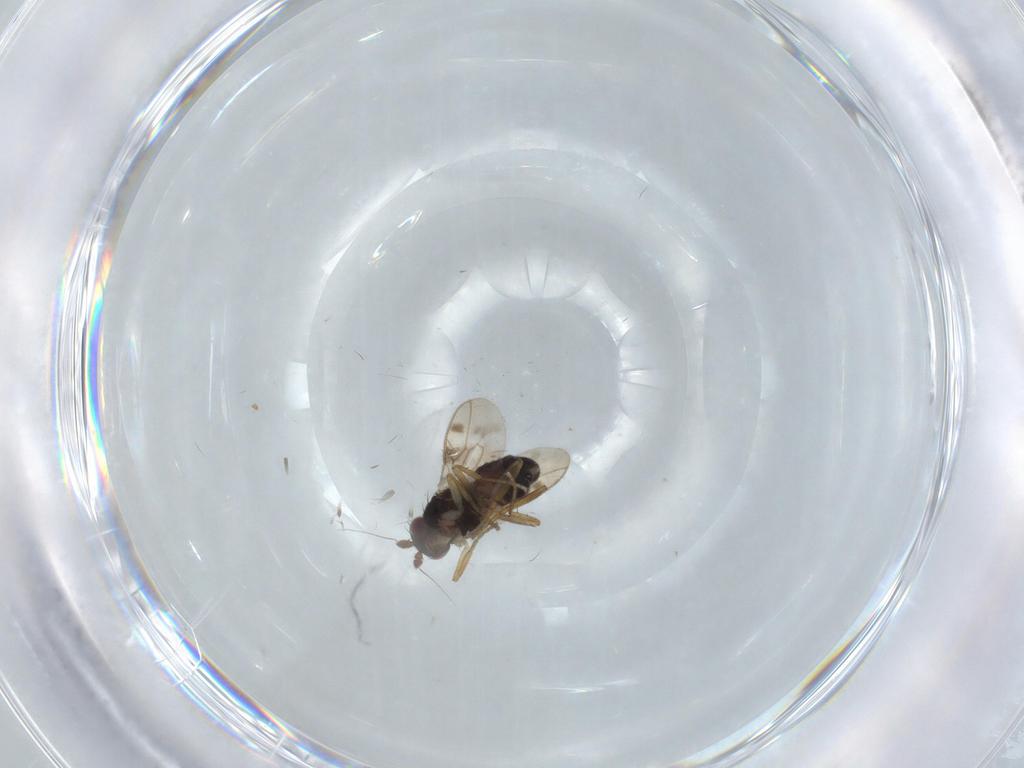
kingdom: Animalia
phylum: Arthropoda
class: Insecta
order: Diptera
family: Sphaeroceridae
